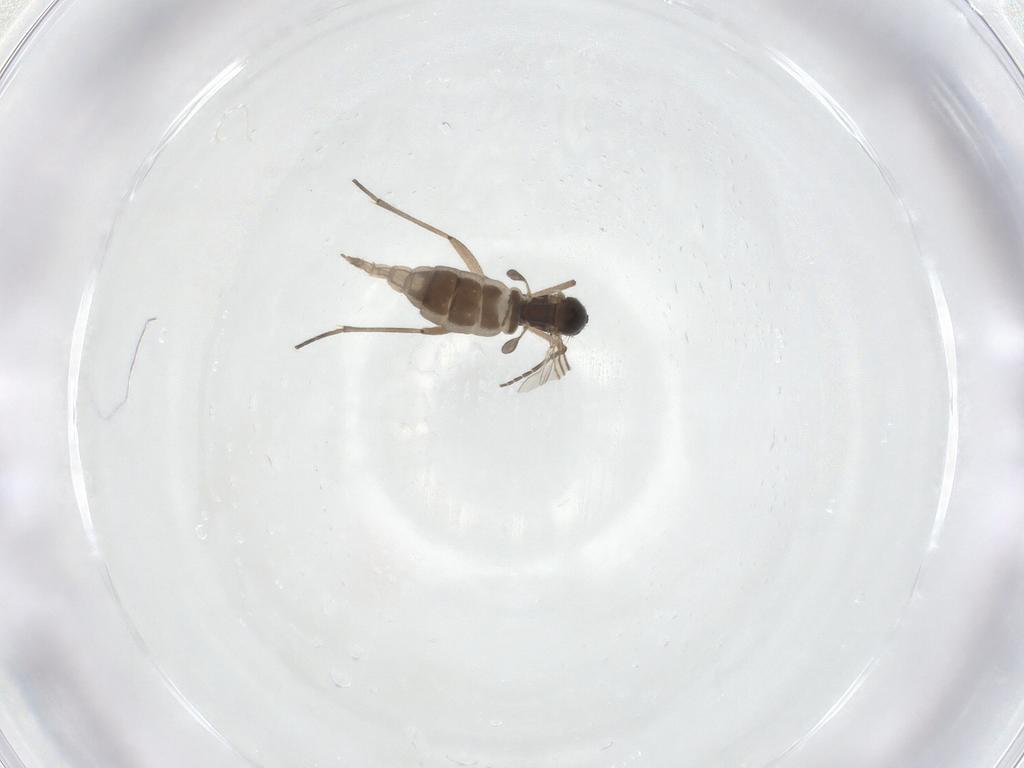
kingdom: Animalia
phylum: Arthropoda
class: Insecta
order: Diptera
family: Sciaridae
